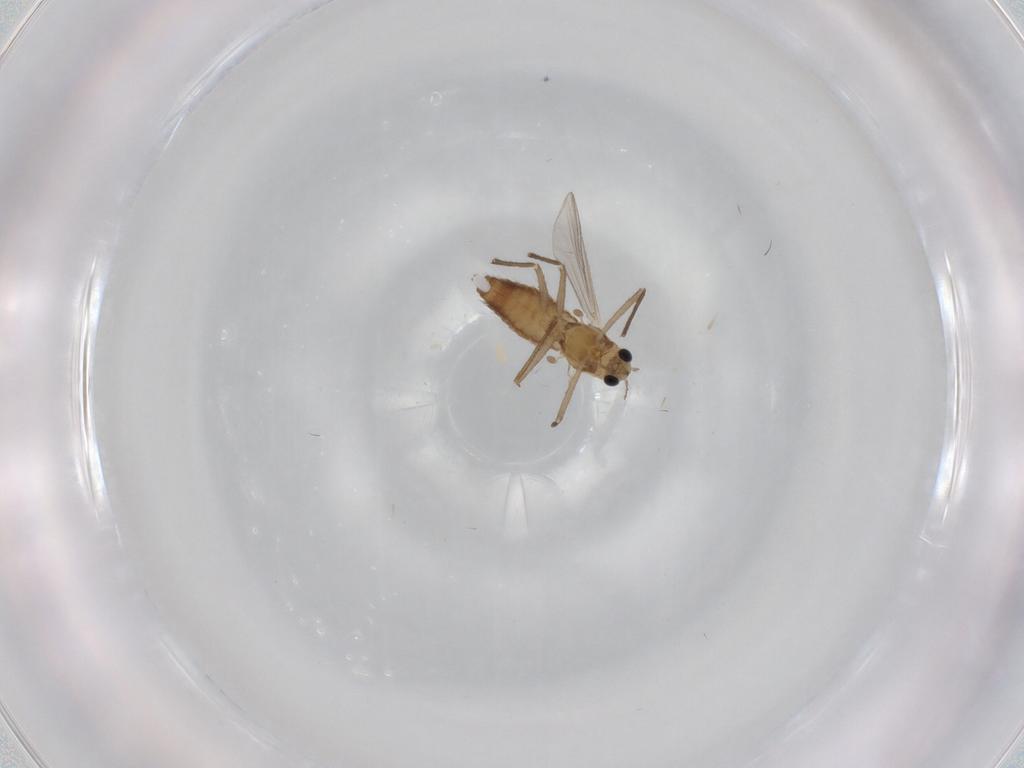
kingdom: Animalia
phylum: Arthropoda
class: Insecta
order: Diptera
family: Chironomidae
